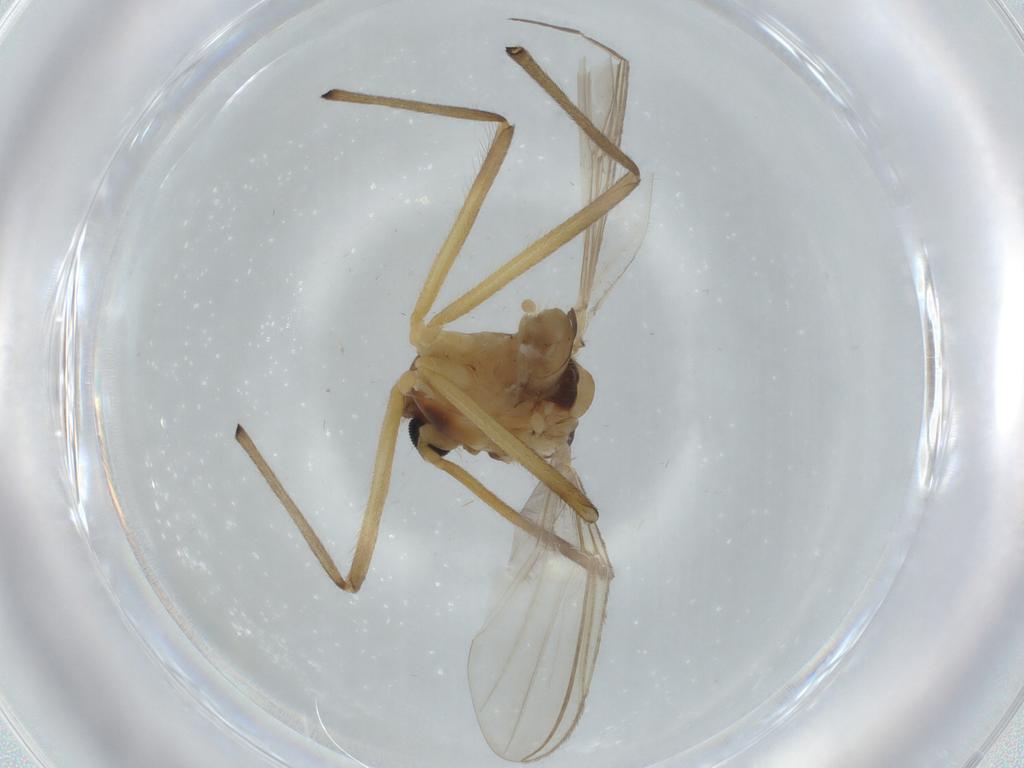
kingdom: Animalia
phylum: Arthropoda
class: Insecta
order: Diptera
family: Chironomidae
